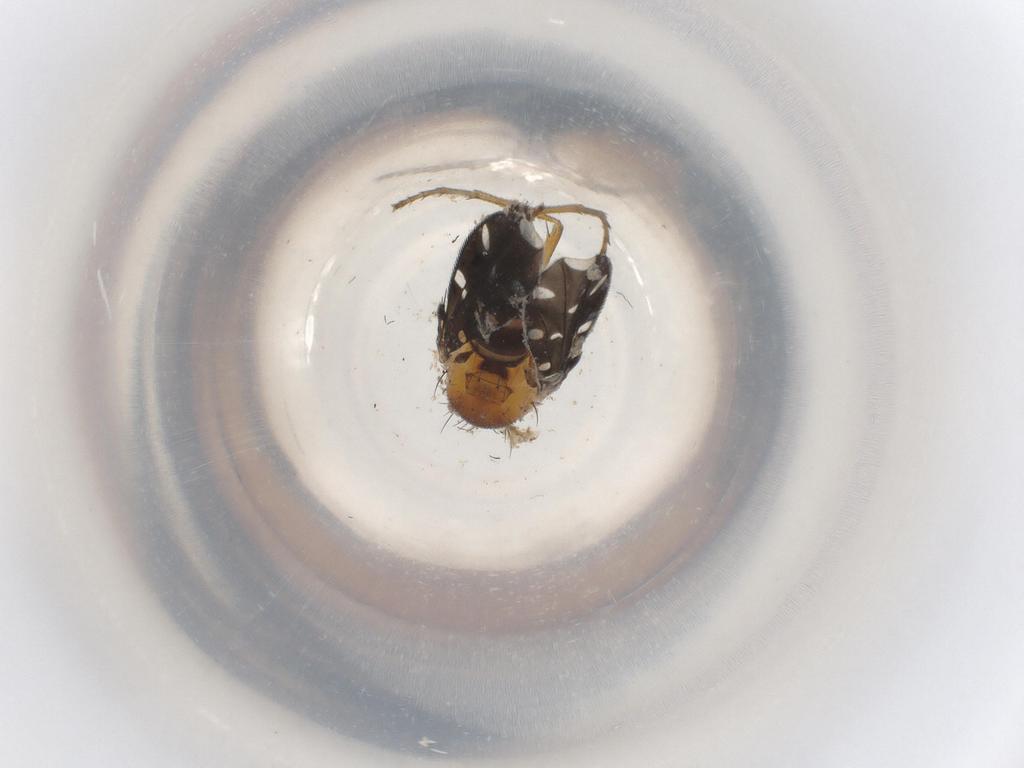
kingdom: Animalia
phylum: Arthropoda
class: Insecta
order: Diptera
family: Ephydridae
